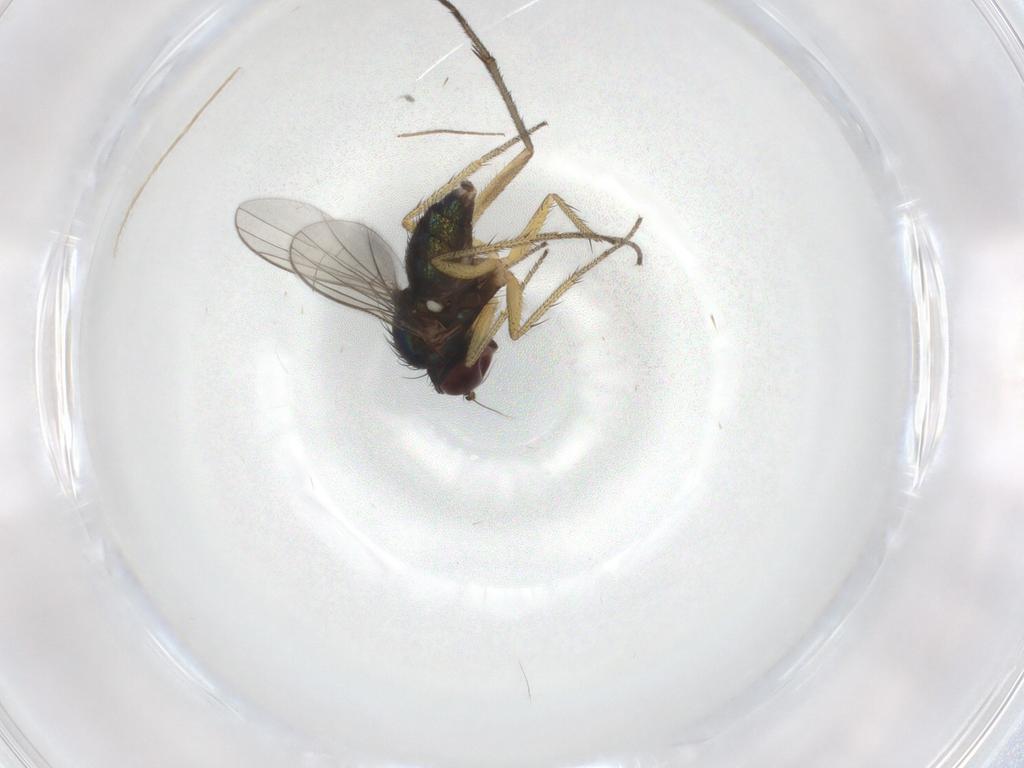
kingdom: Animalia
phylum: Arthropoda
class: Insecta
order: Diptera
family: Sciaridae
